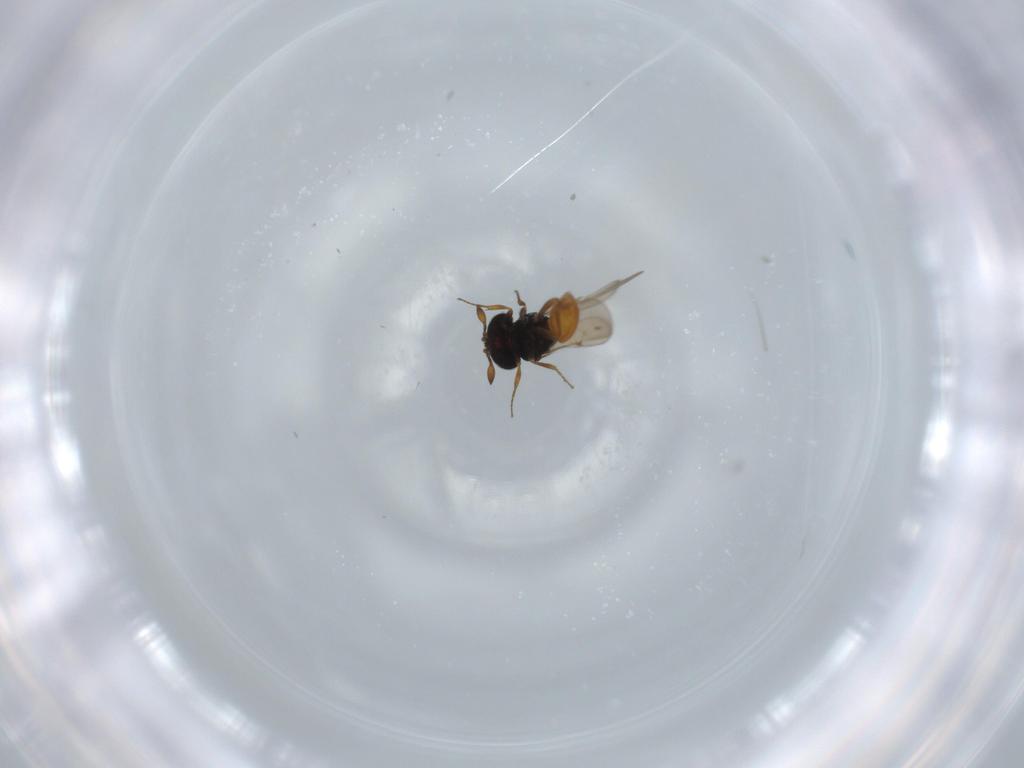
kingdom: Animalia
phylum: Arthropoda
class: Insecta
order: Hymenoptera
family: Scelionidae
